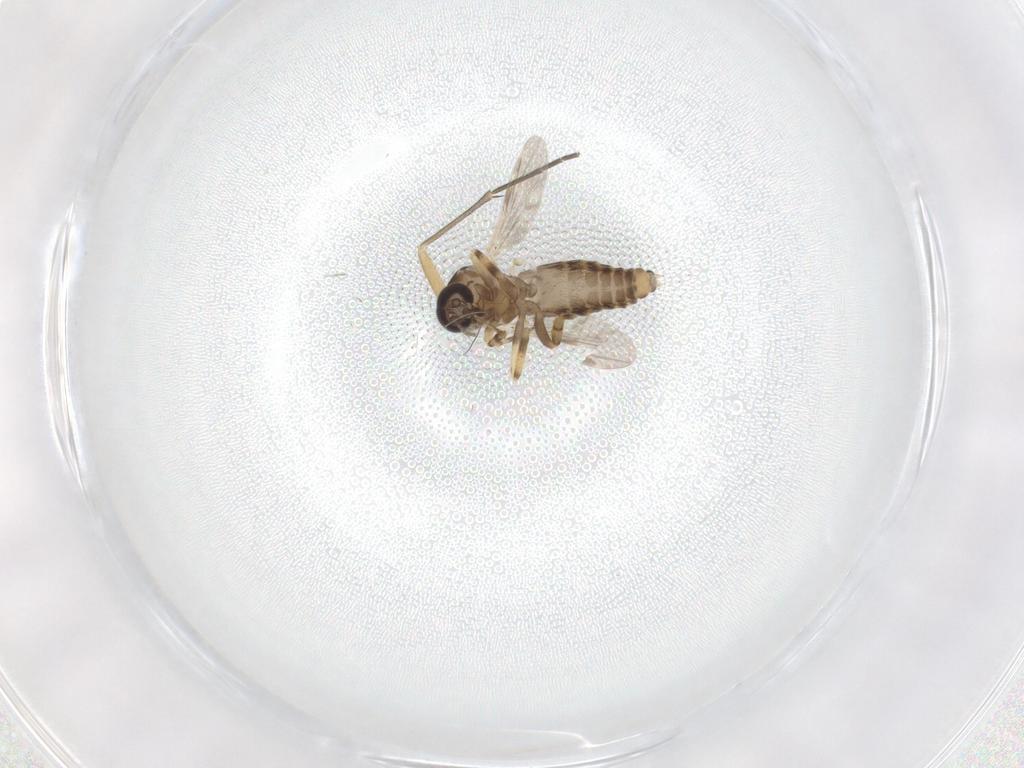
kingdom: Animalia
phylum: Arthropoda
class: Insecta
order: Diptera
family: Ceratopogonidae
